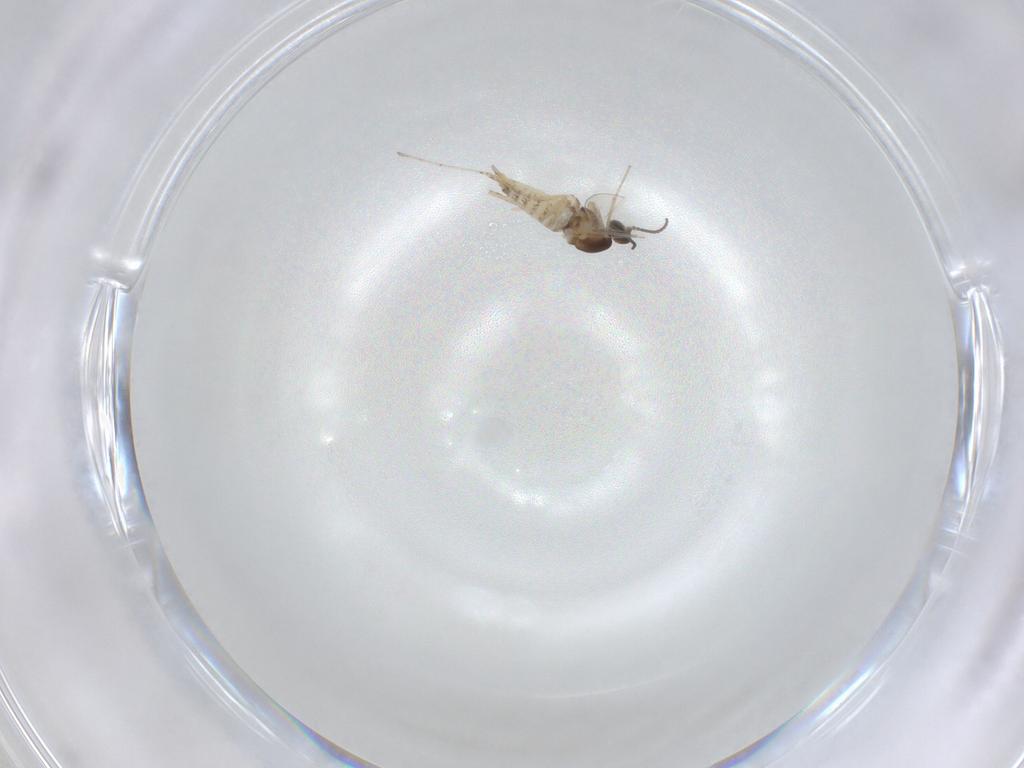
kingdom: Animalia
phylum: Arthropoda
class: Insecta
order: Diptera
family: Cecidomyiidae
